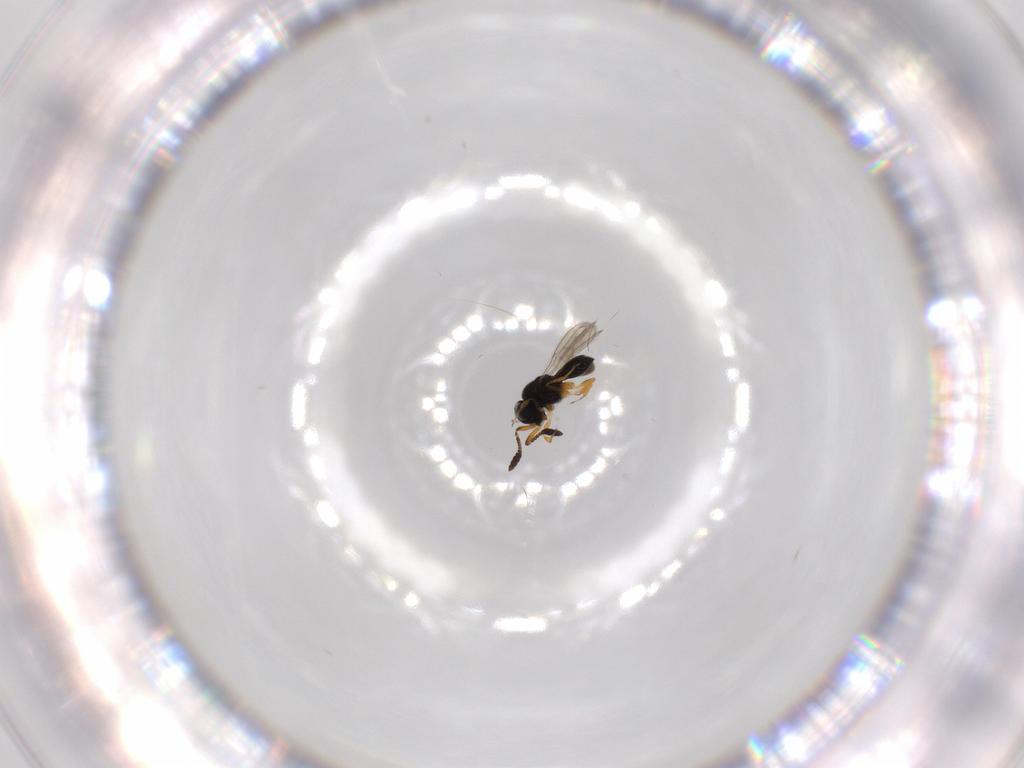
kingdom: Animalia
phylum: Arthropoda
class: Insecta
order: Hymenoptera
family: Scelionidae
